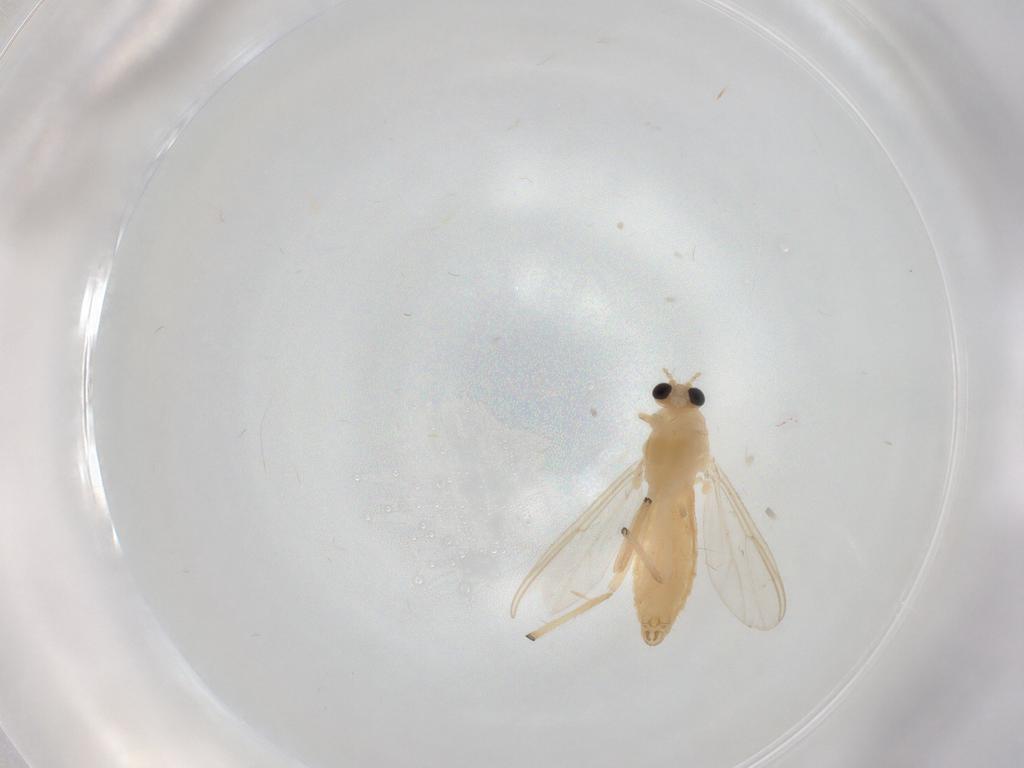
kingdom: Animalia
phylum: Arthropoda
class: Insecta
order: Diptera
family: Chironomidae
